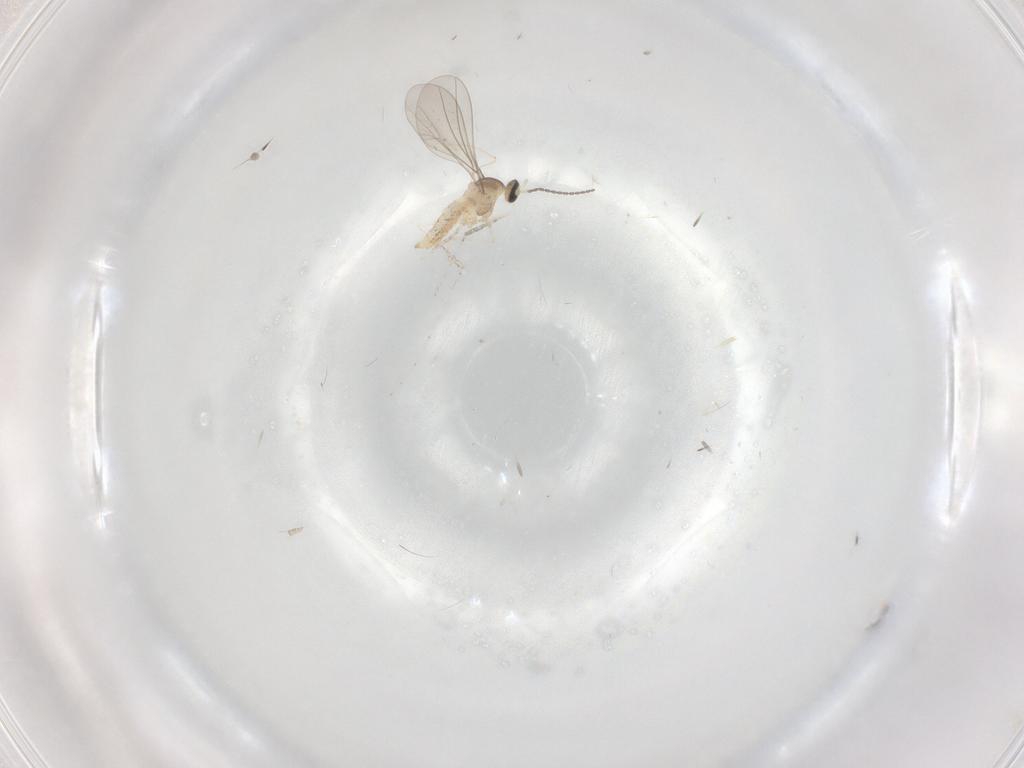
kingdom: Animalia
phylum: Arthropoda
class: Insecta
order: Diptera
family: Cecidomyiidae
